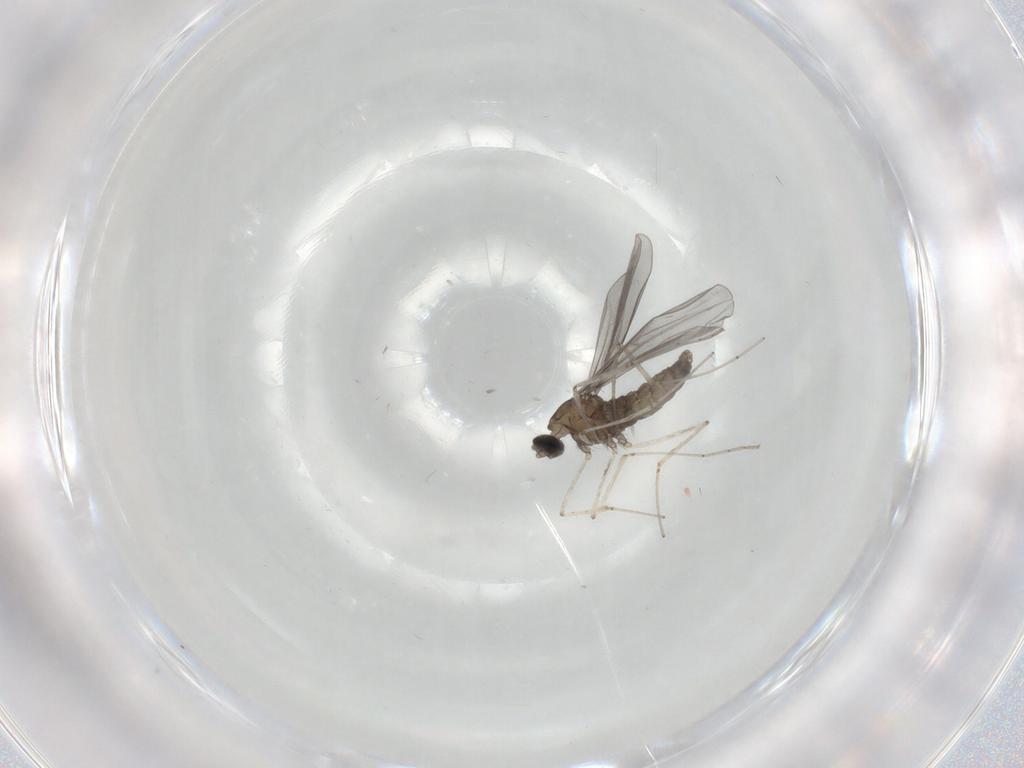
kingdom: Animalia
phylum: Arthropoda
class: Insecta
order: Diptera
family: Cecidomyiidae
